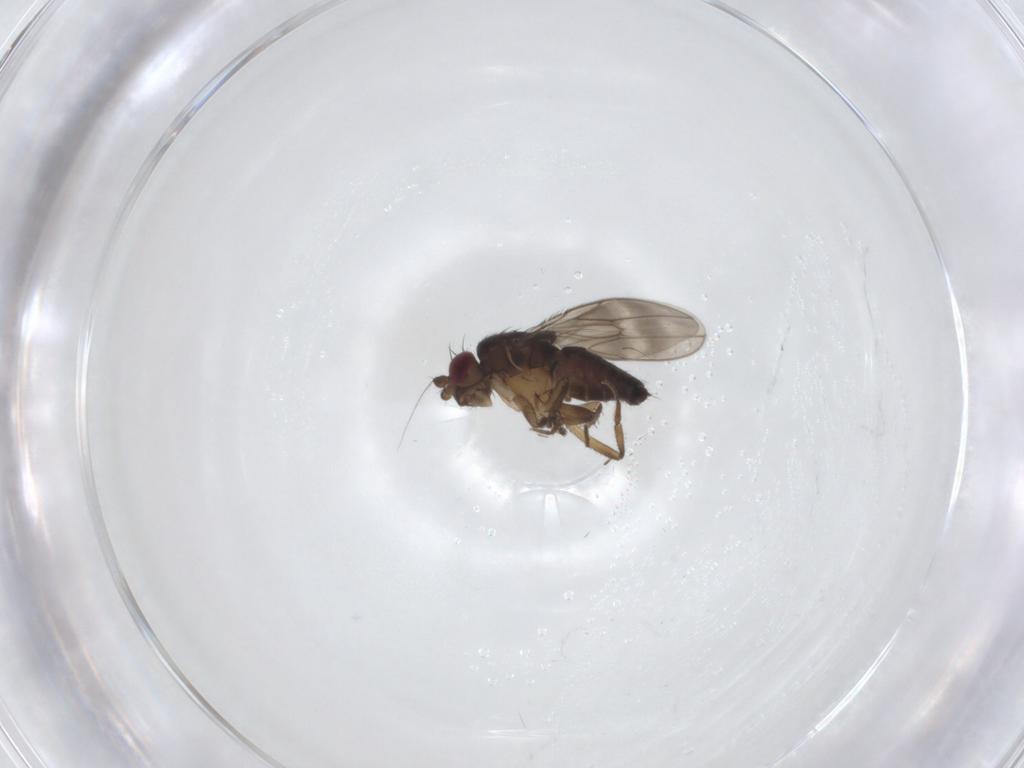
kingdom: Animalia
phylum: Arthropoda
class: Insecta
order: Diptera
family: Sphaeroceridae
